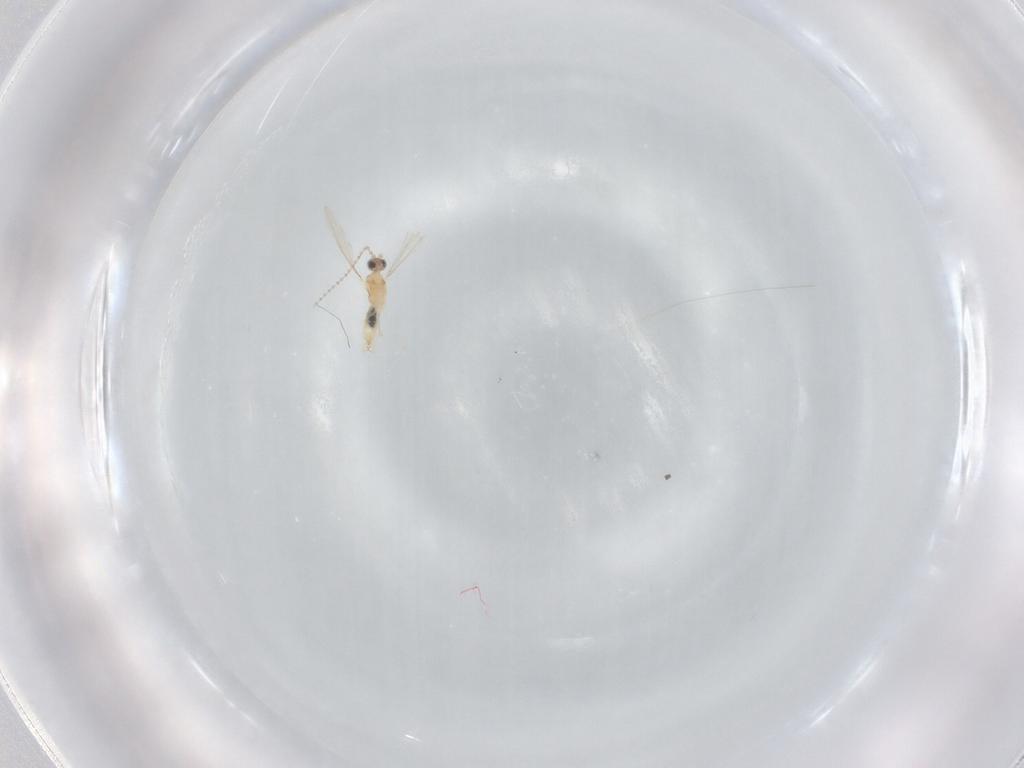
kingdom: Animalia
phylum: Arthropoda
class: Insecta
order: Diptera
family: Cecidomyiidae
